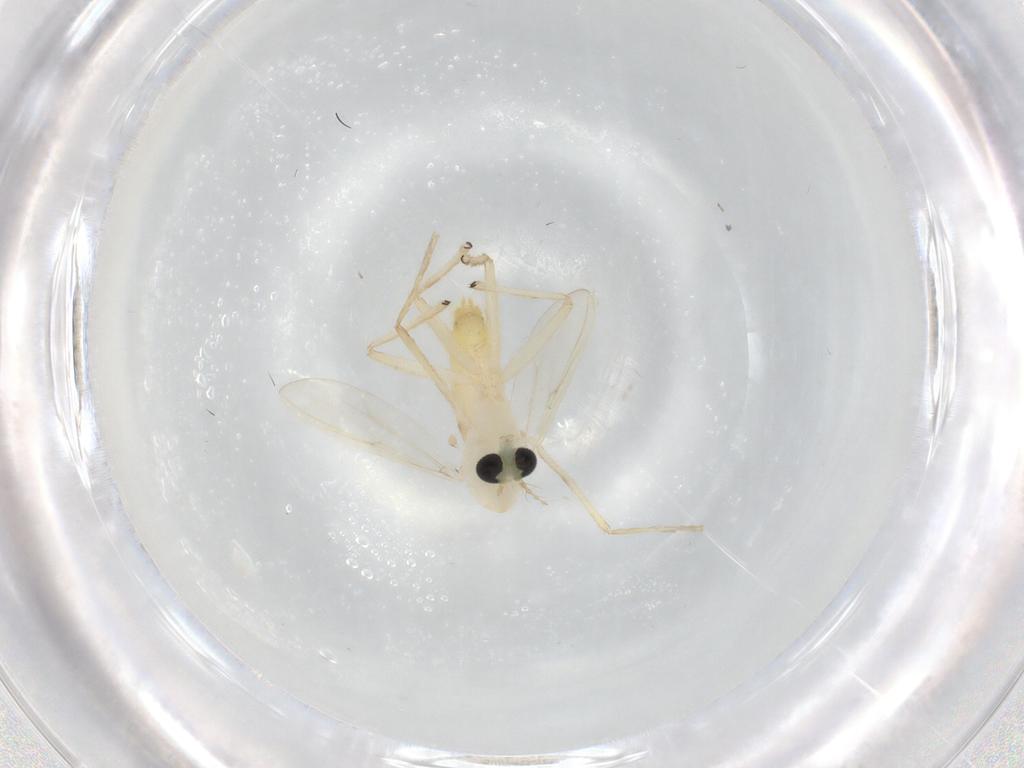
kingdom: Animalia
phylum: Arthropoda
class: Insecta
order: Diptera
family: Chironomidae
